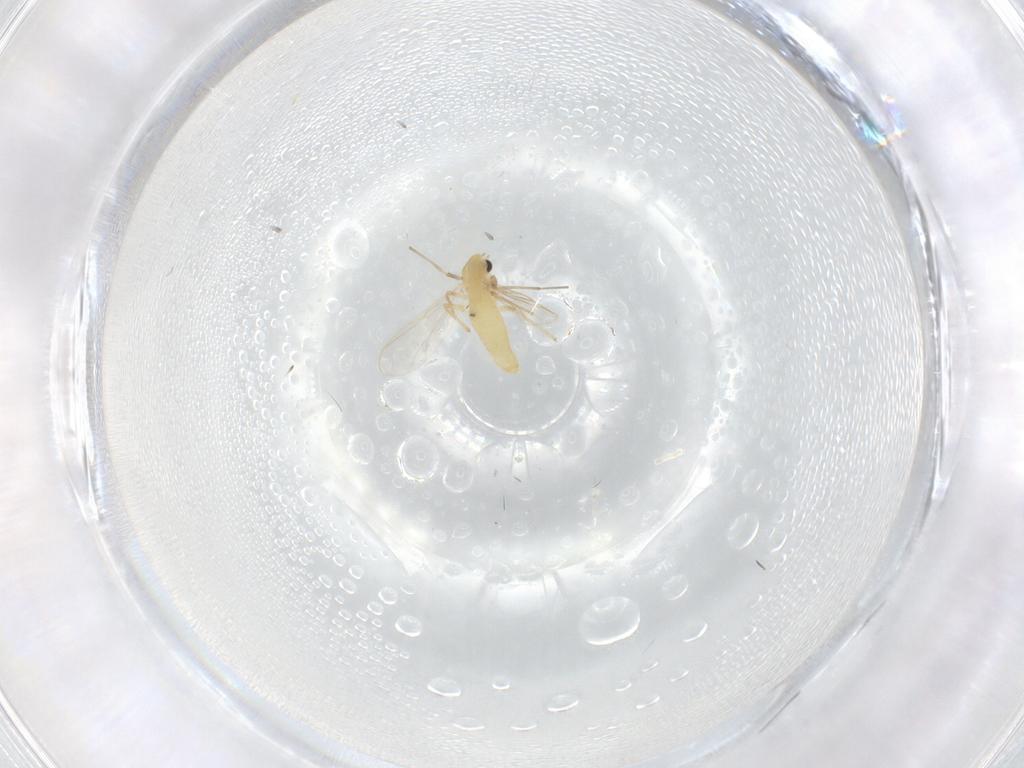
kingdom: Animalia
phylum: Arthropoda
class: Insecta
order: Diptera
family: Chironomidae
